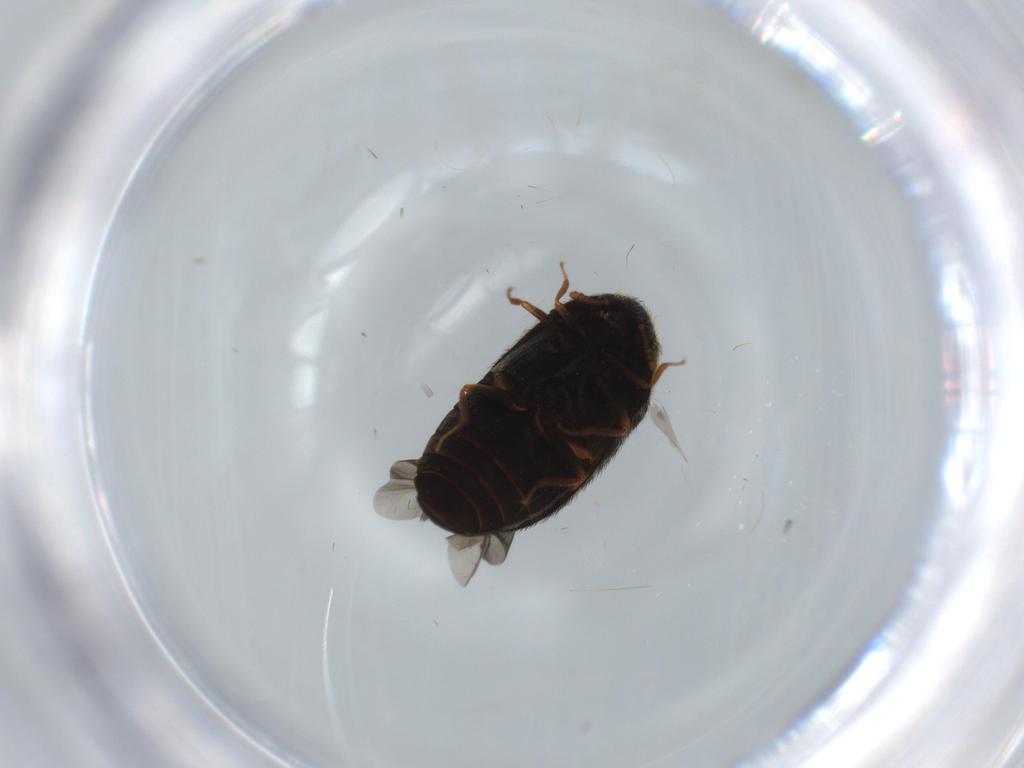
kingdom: Animalia
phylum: Arthropoda
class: Insecta
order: Coleoptera
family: Dermestidae
